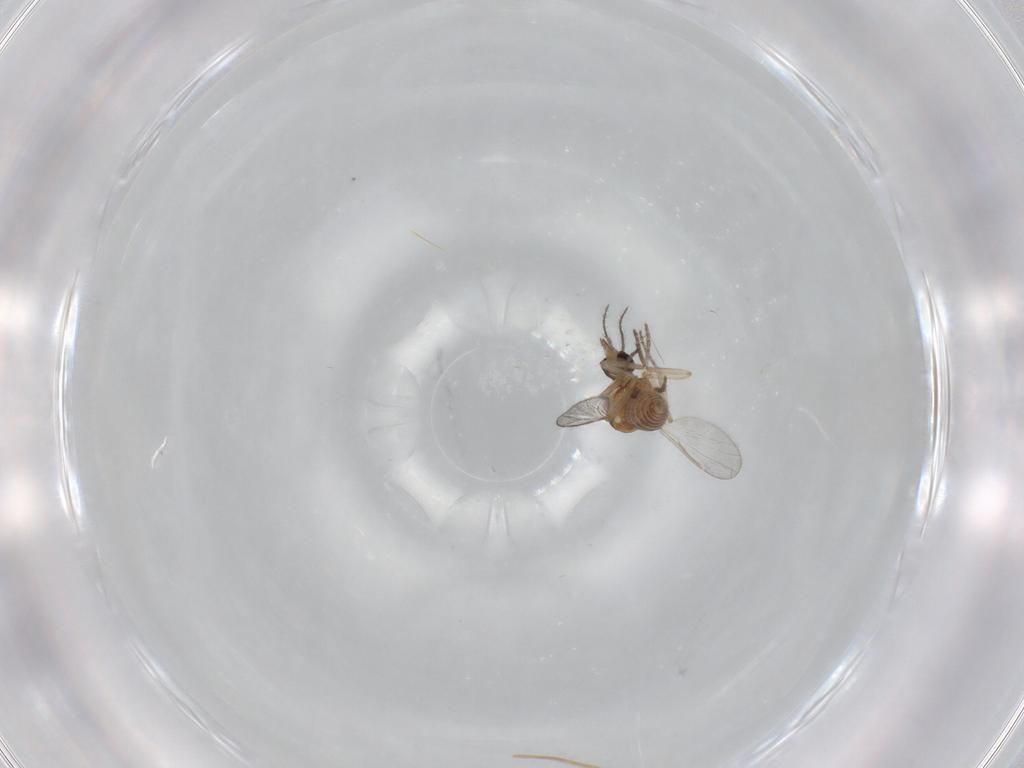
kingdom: Animalia
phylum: Arthropoda
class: Insecta
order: Diptera
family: Ceratopogonidae
